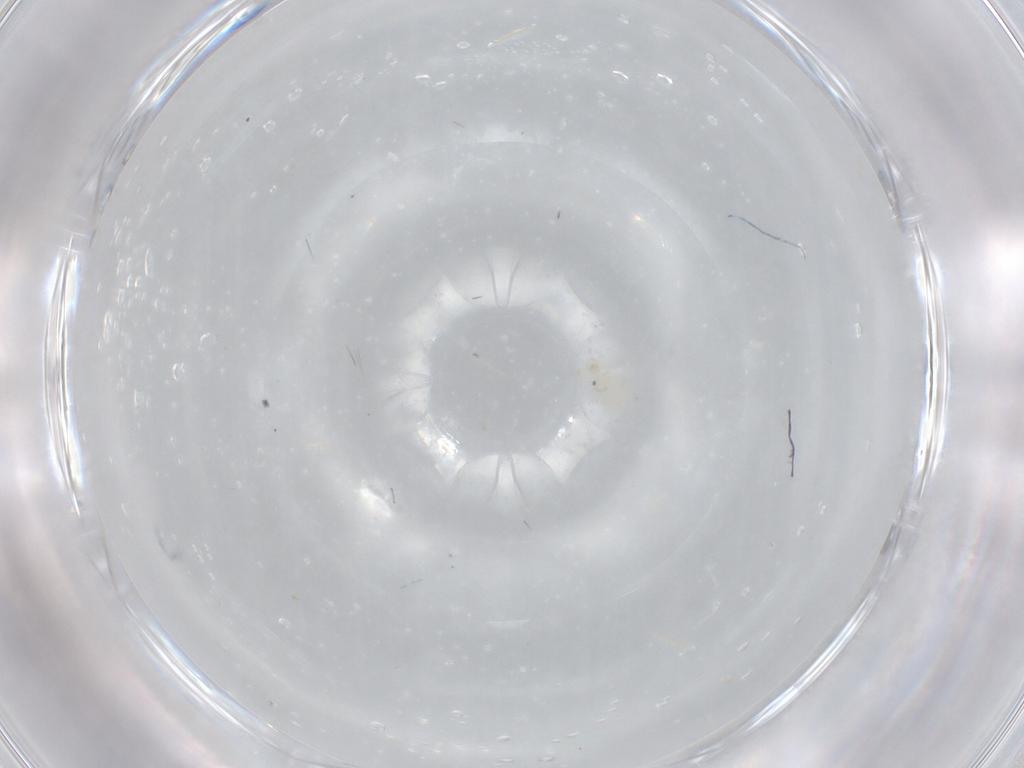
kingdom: Animalia
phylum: Arthropoda
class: Arachnida
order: Trombidiformes
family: Erythraeidae
